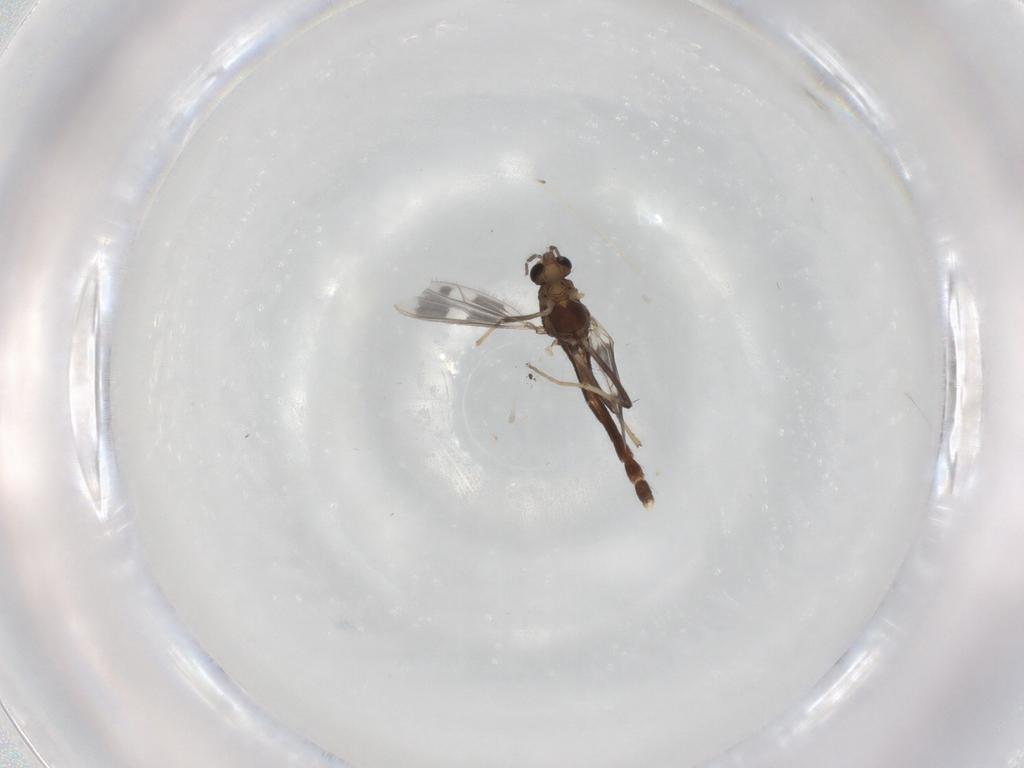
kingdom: Animalia
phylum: Arthropoda
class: Insecta
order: Diptera
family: Chironomidae
